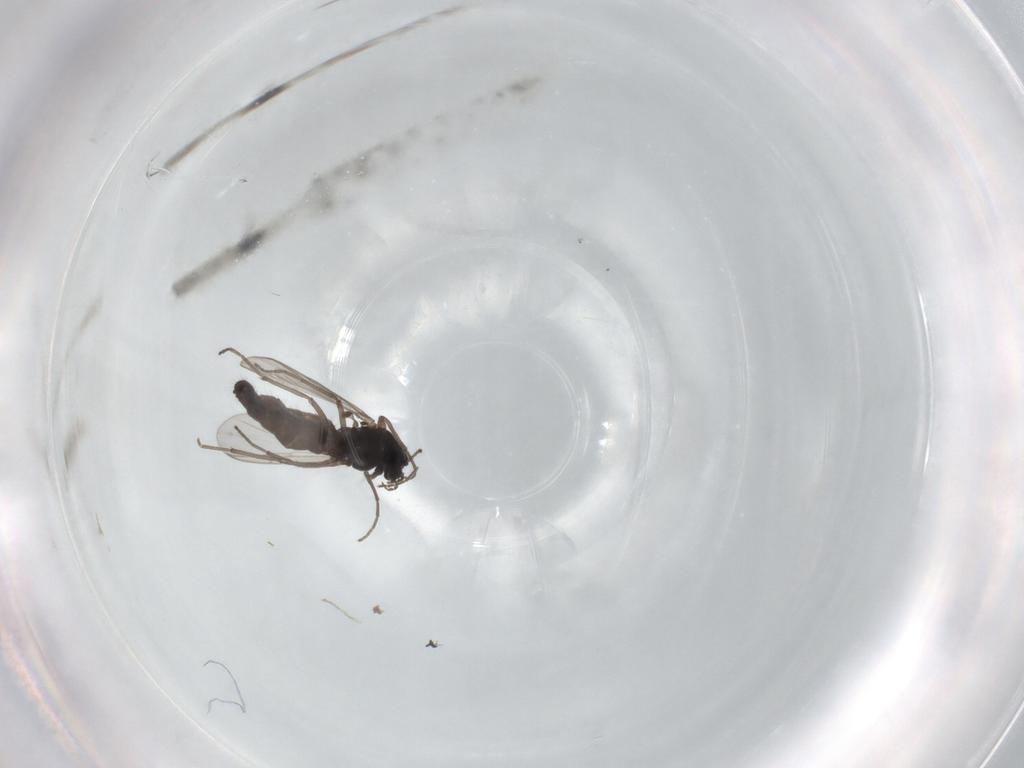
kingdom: Animalia
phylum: Arthropoda
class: Insecta
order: Diptera
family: Chironomidae
